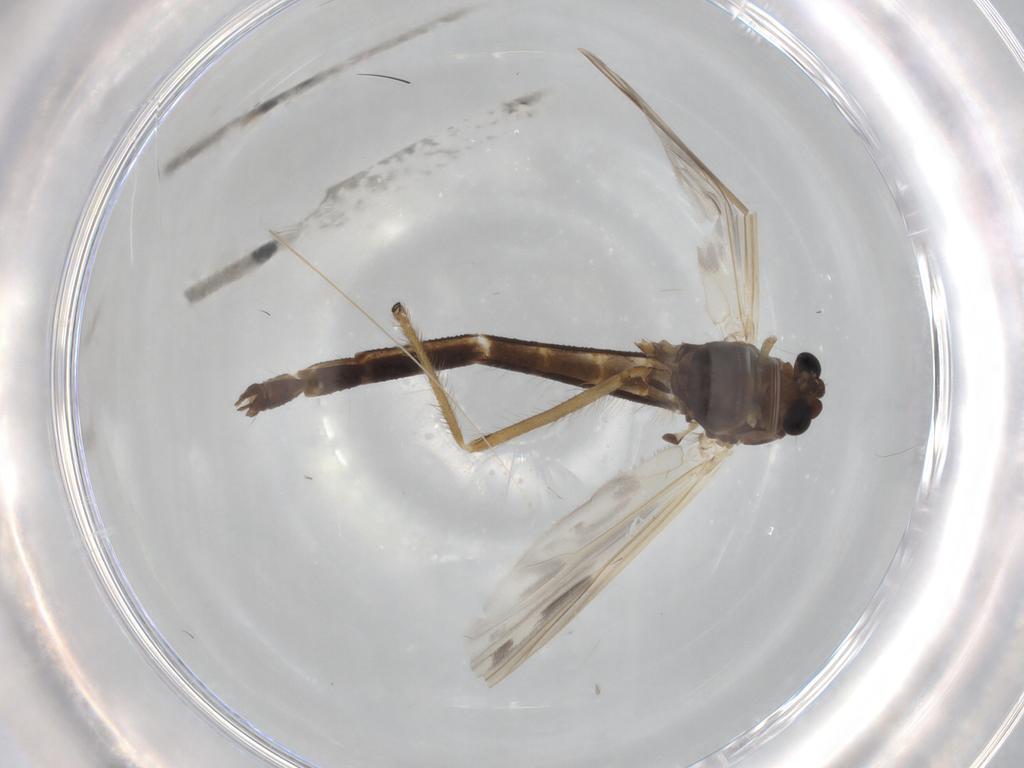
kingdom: Animalia
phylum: Arthropoda
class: Insecta
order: Diptera
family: Chironomidae
